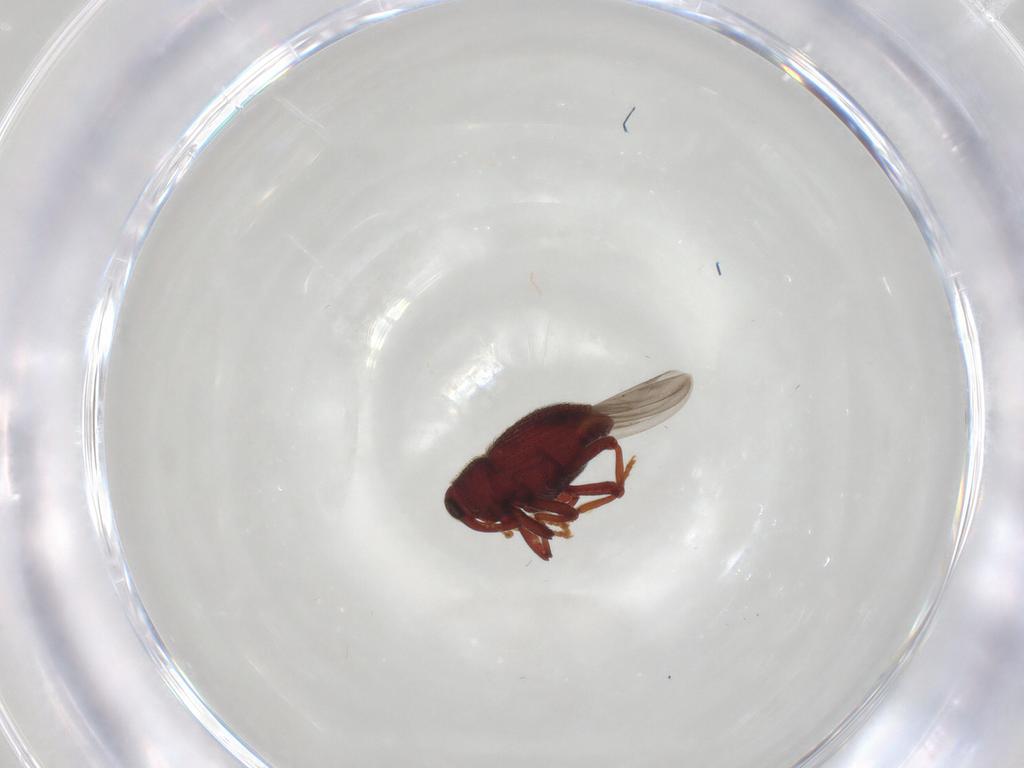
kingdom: Animalia
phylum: Arthropoda
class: Insecta
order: Coleoptera
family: Curculionidae
